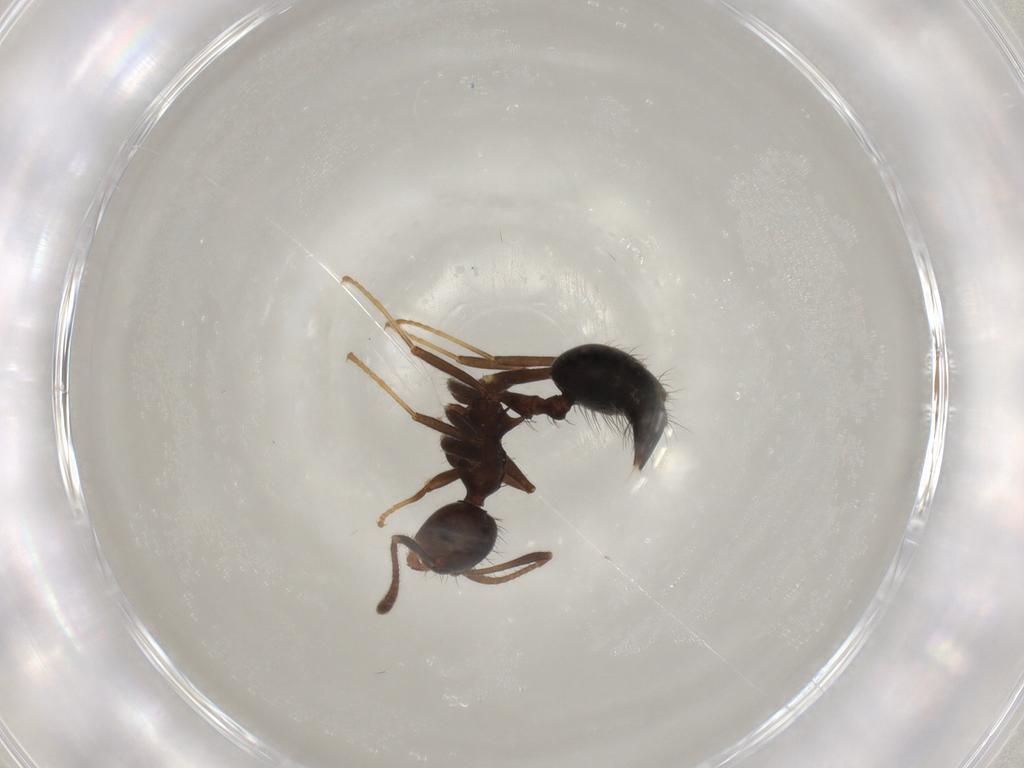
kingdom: Animalia
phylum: Arthropoda
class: Insecta
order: Hymenoptera
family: Formicidae
